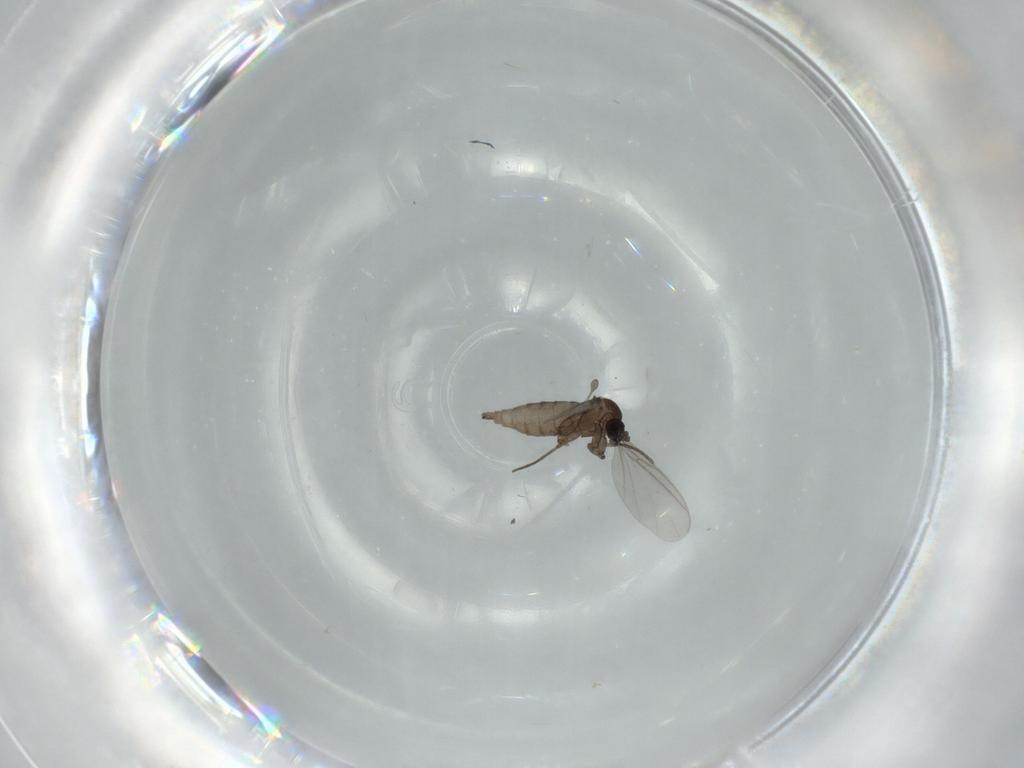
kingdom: Animalia
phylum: Arthropoda
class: Insecta
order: Diptera
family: Sciaridae
